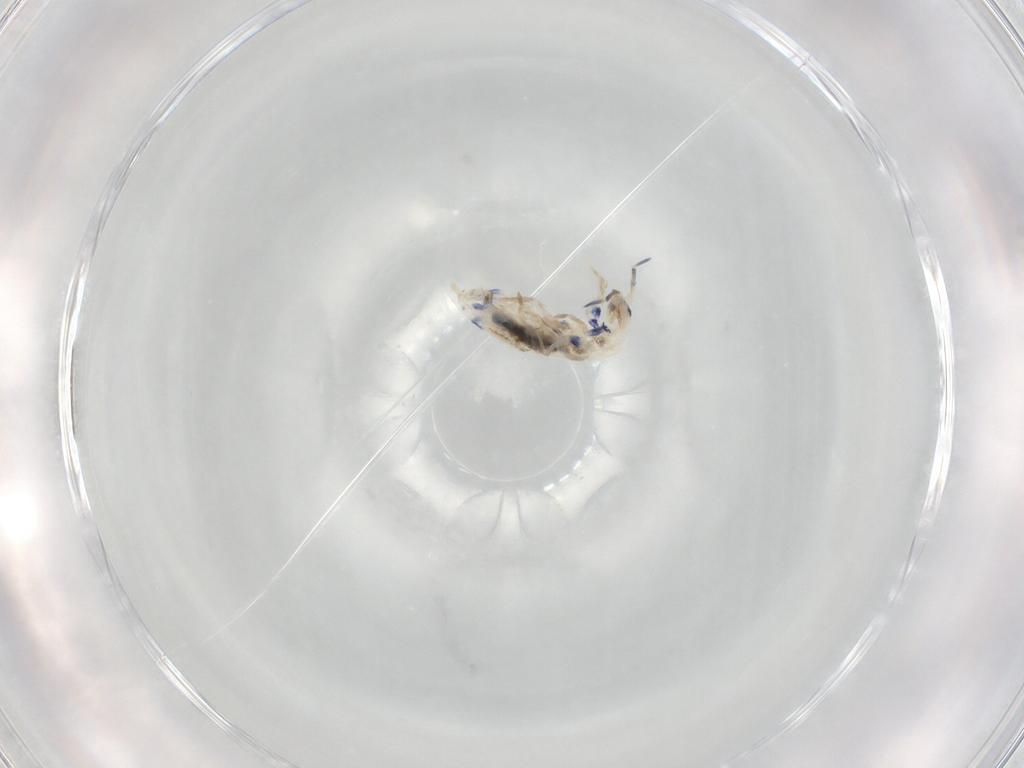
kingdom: Animalia
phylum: Arthropoda
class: Collembola
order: Entomobryomorpha
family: Entomobryidae
